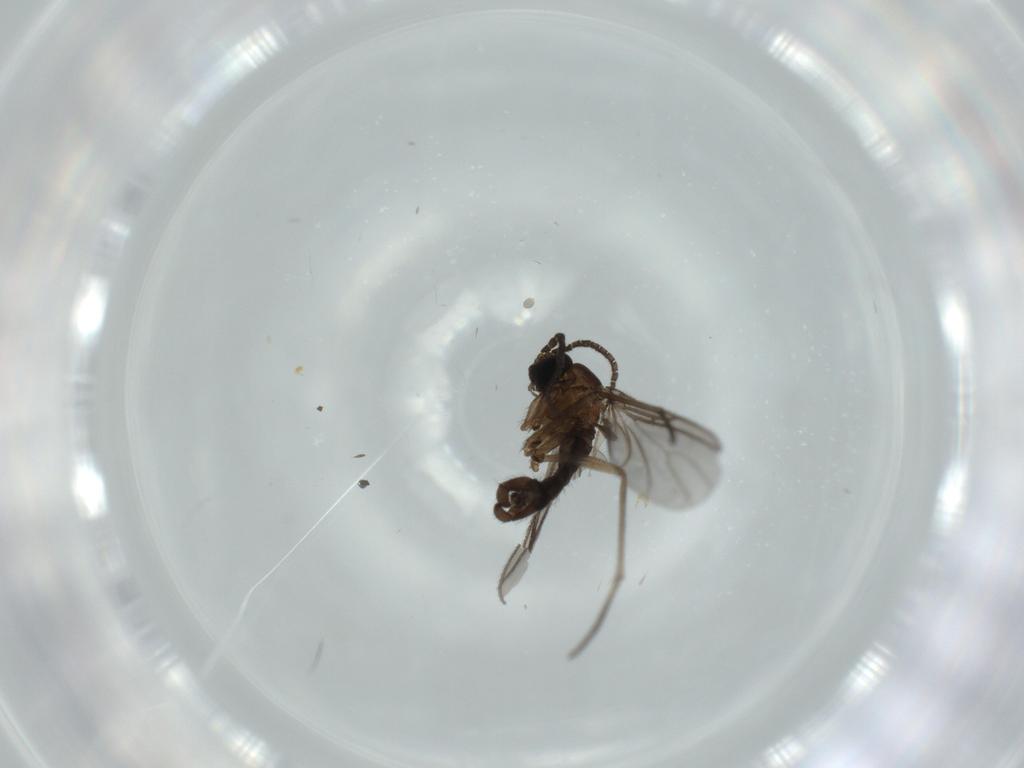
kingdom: Animalia
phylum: Arthropoda
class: Insecta
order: Diptera
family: Sciaridae
